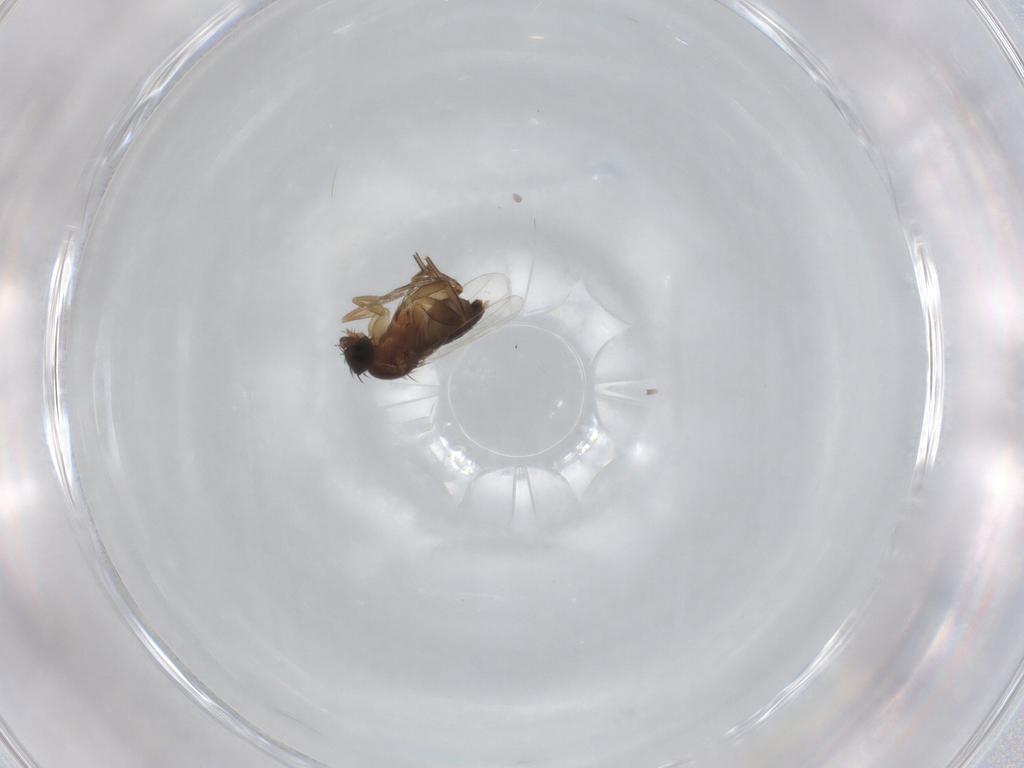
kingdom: Animalia
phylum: Arthropoda
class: Insecta
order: Diptera
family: Phoridae
